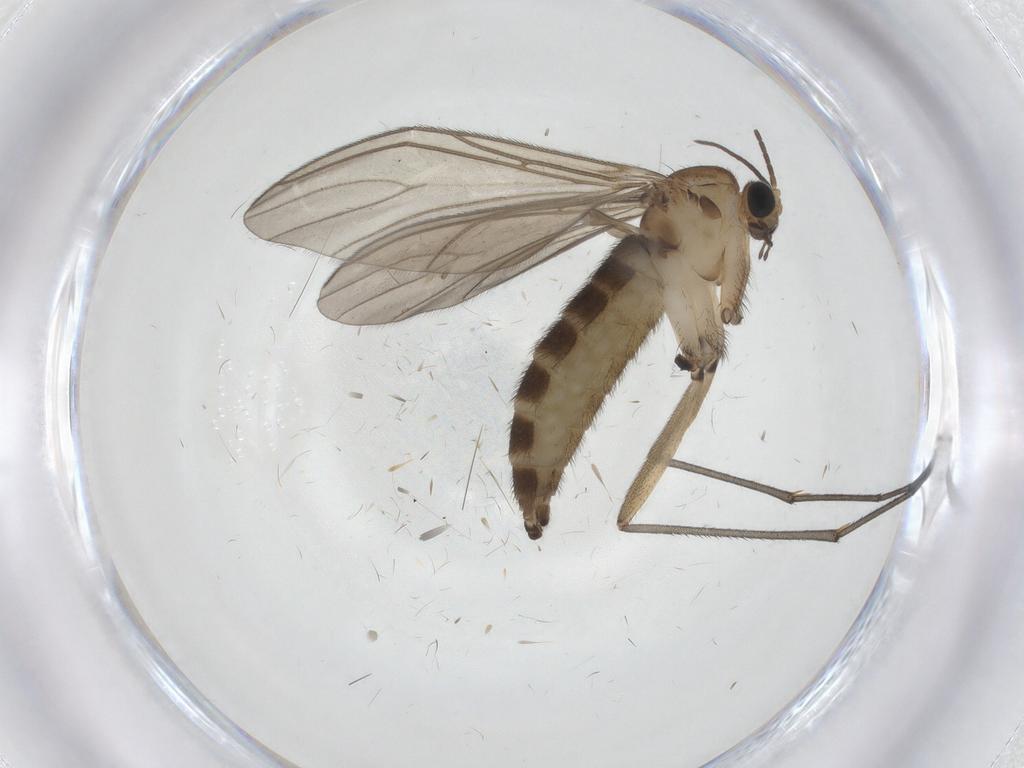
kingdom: Animalia
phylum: Arthropoda
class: Insecta
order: Diptera
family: Sciaridae
